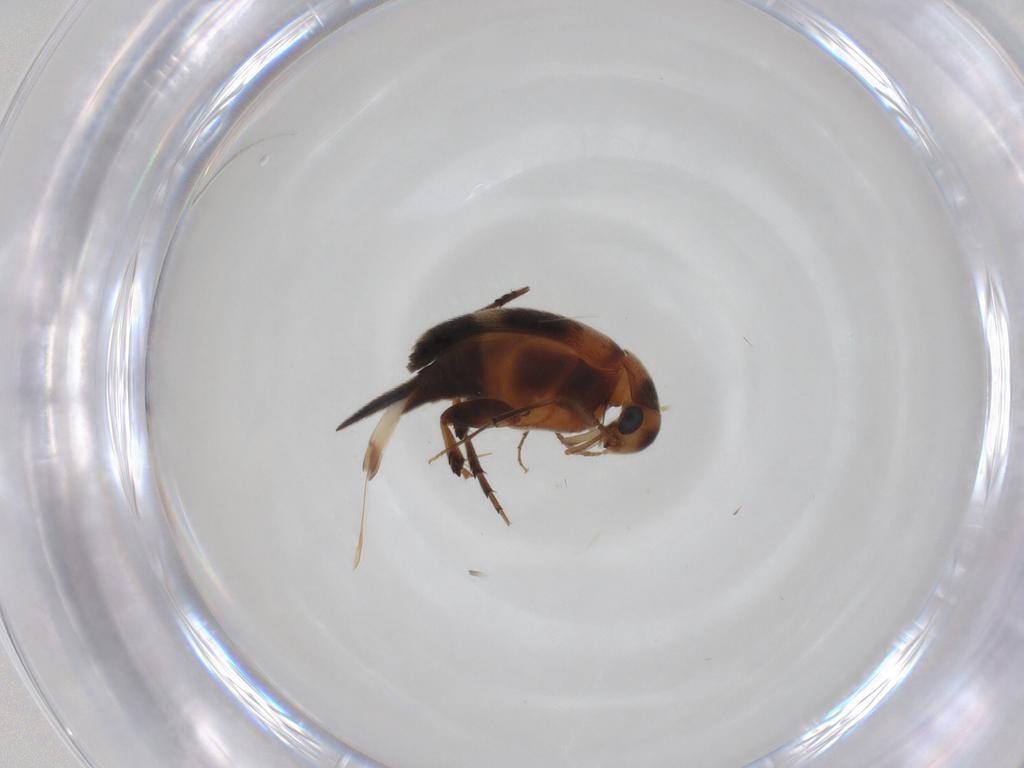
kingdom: Animalia
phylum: Arthropoda
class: Insecta
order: Coleoptera
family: Mordellidae
